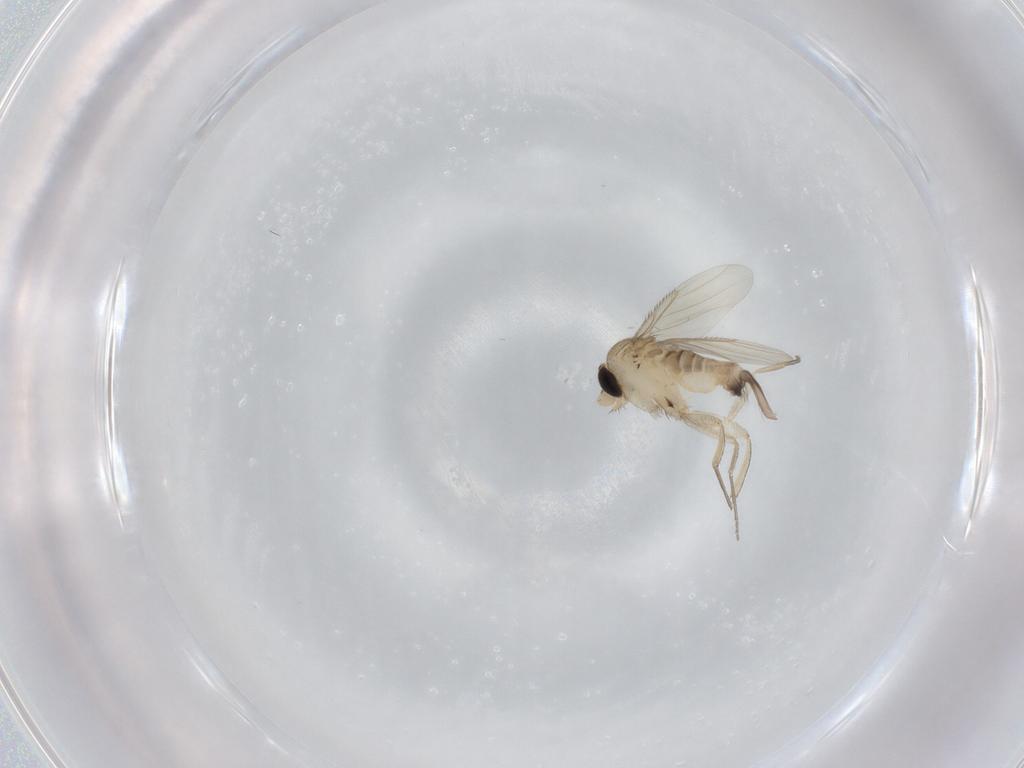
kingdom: Animalia
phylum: Arthropoda
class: Insecta
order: Diptera
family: Phoridae
